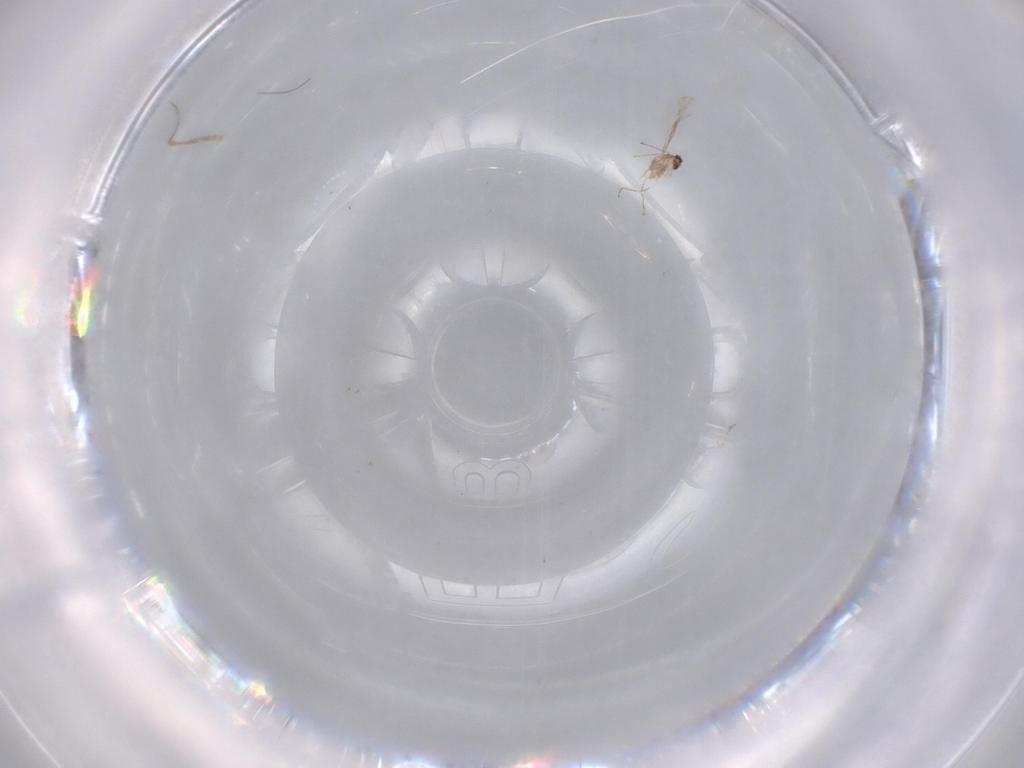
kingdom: Animalia
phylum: Arthropoda
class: Insecta
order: Diptera
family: Cecidomyiidae
